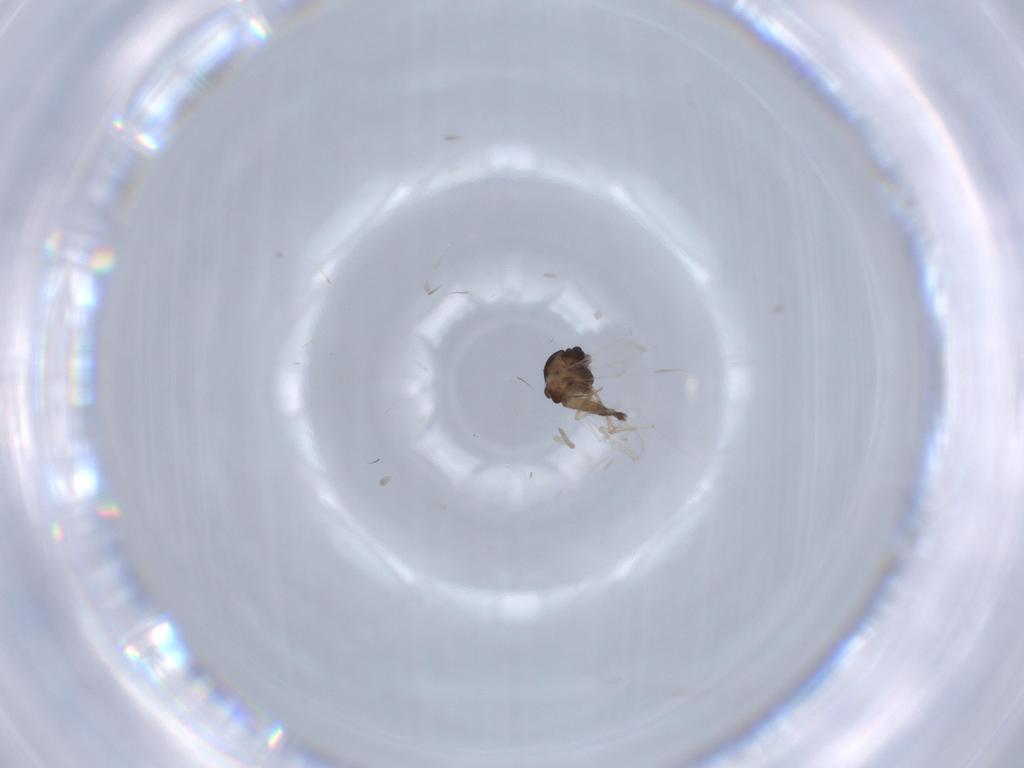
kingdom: Animalia
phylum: Arthropoda
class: Insecta
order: Diptera
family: Chironomidae
